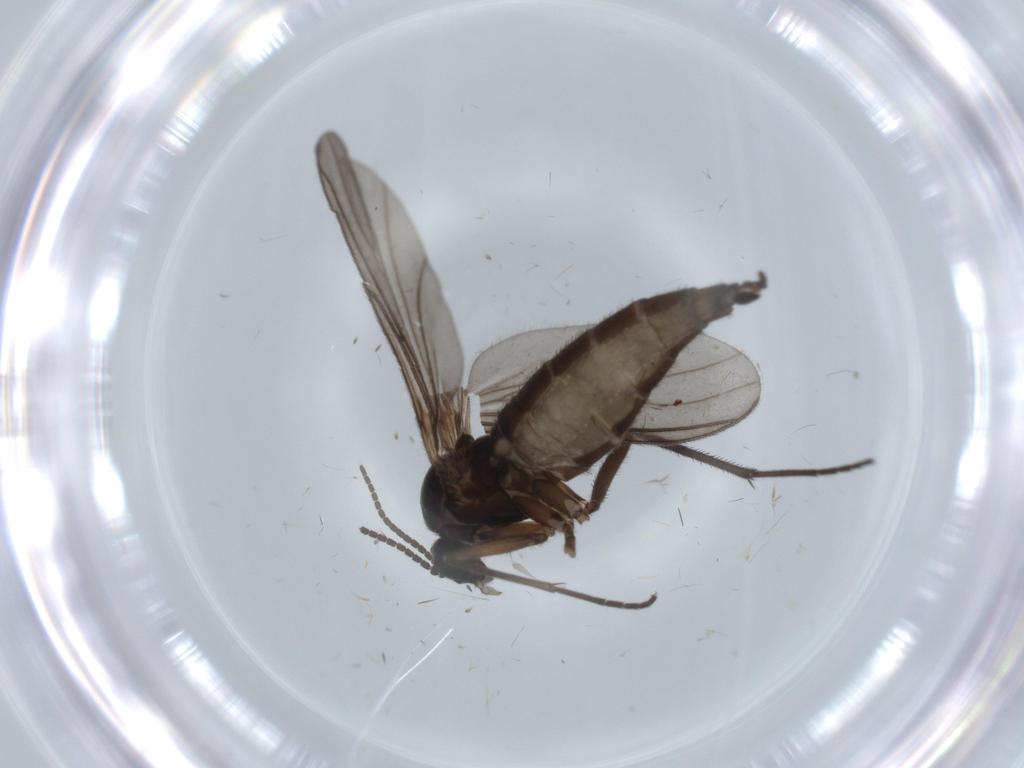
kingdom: Animalia
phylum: Arthropoda
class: Insecta
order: Diptera
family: Sciaridae
